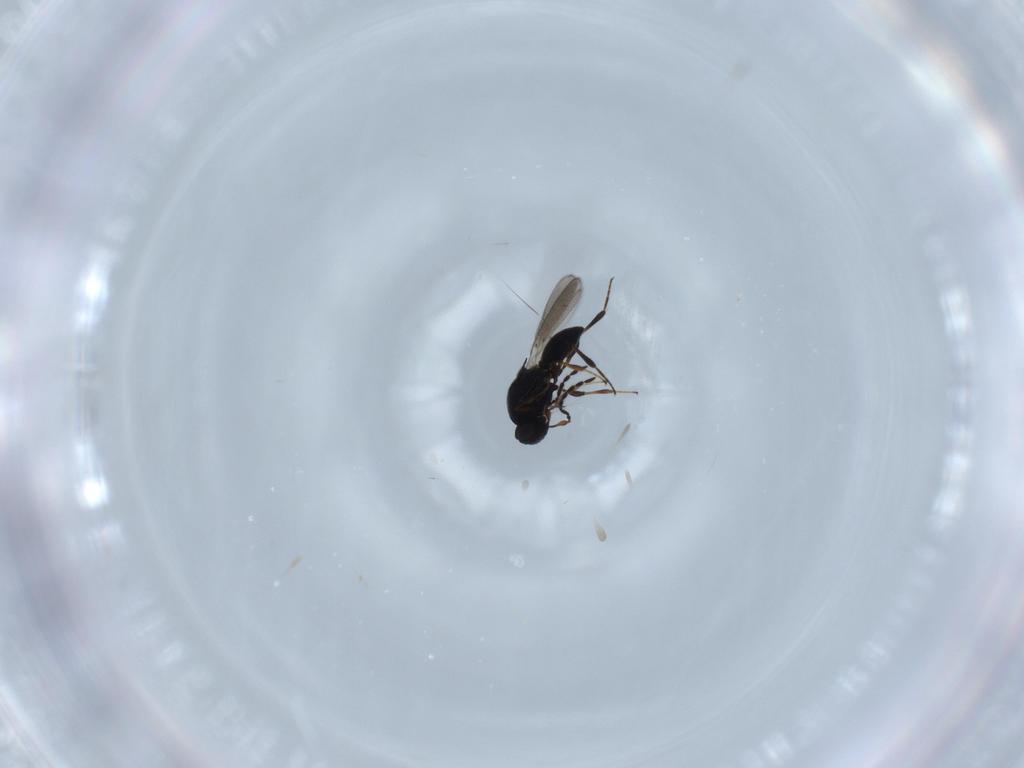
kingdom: Animalia
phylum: Arthropoda
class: Insecta
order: Hymenoptera
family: Platygastridae
